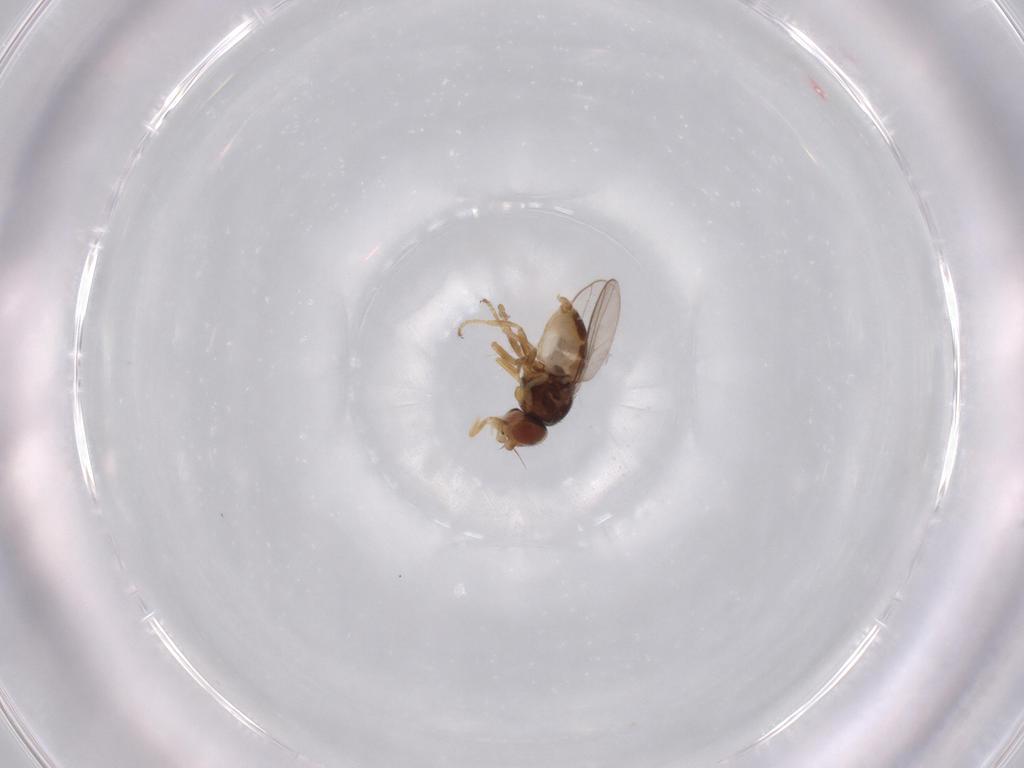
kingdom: Animalia
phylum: Arthropoda
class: Insecta
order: Diptera
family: Chloropidae
